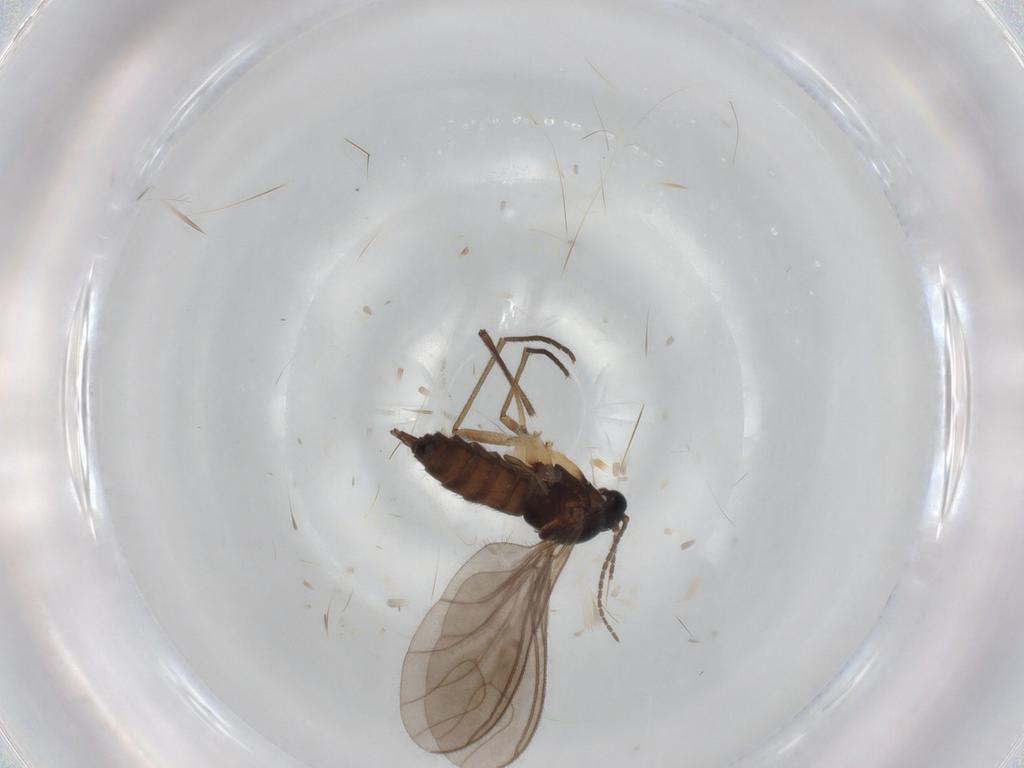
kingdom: Animalia
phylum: Arthropoda
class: Insecta
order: Diptera
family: Sciaridae
